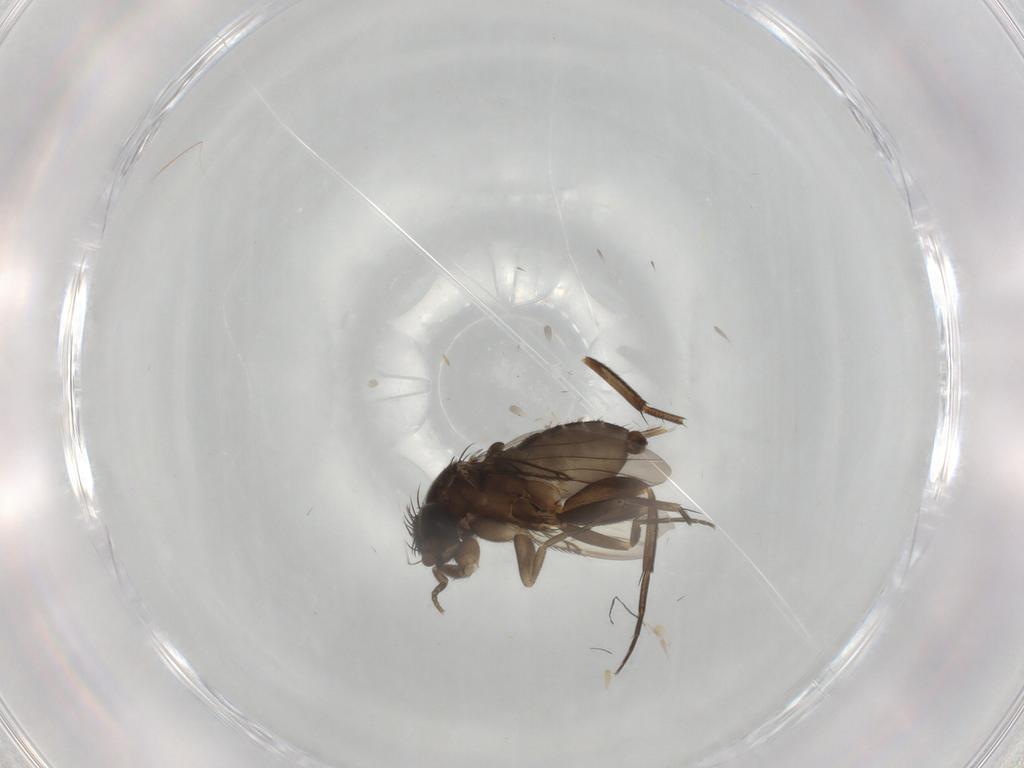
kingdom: Animalia
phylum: Arthropoda
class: Insecta
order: Diptera
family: Phoridae
